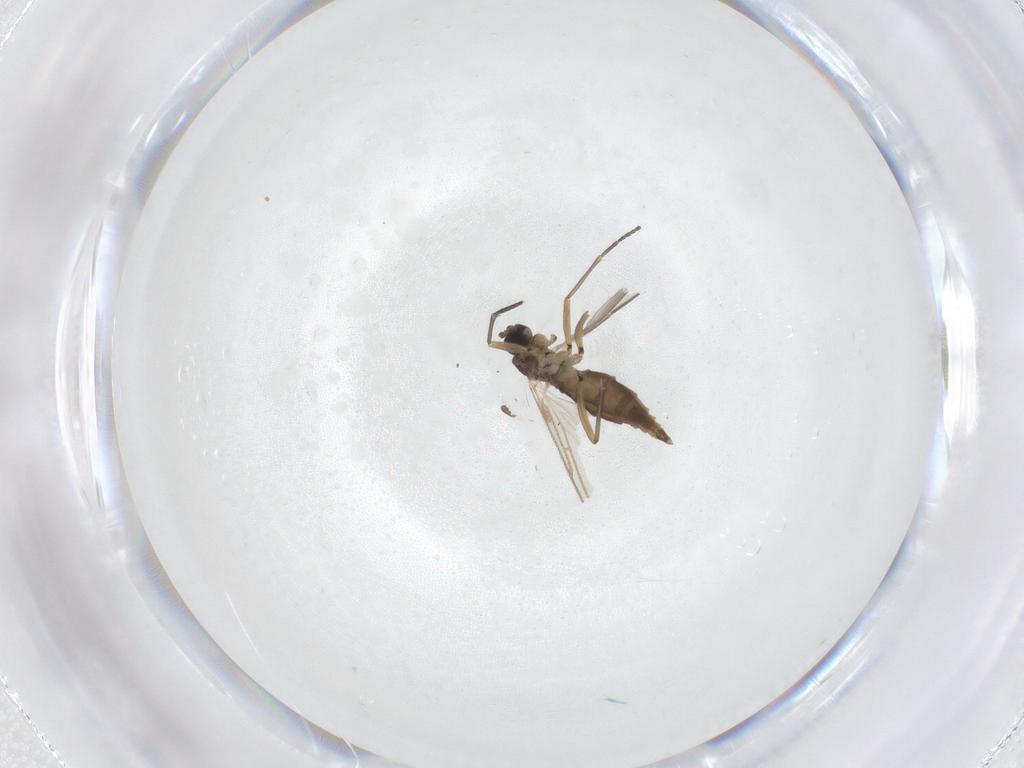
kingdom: Animalia
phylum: Arthropoda
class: Insecta
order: Diptera
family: Sciaridae
